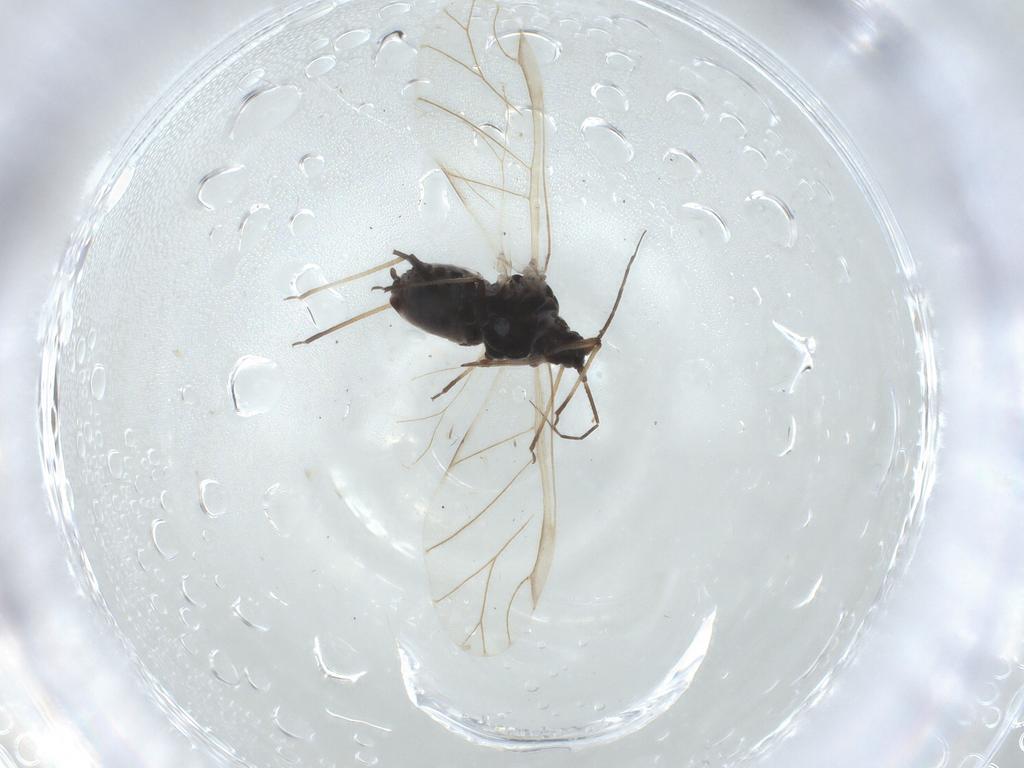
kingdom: Animalia
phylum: Arthropoda
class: Insecta
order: Hemiptera
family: Aphididae
